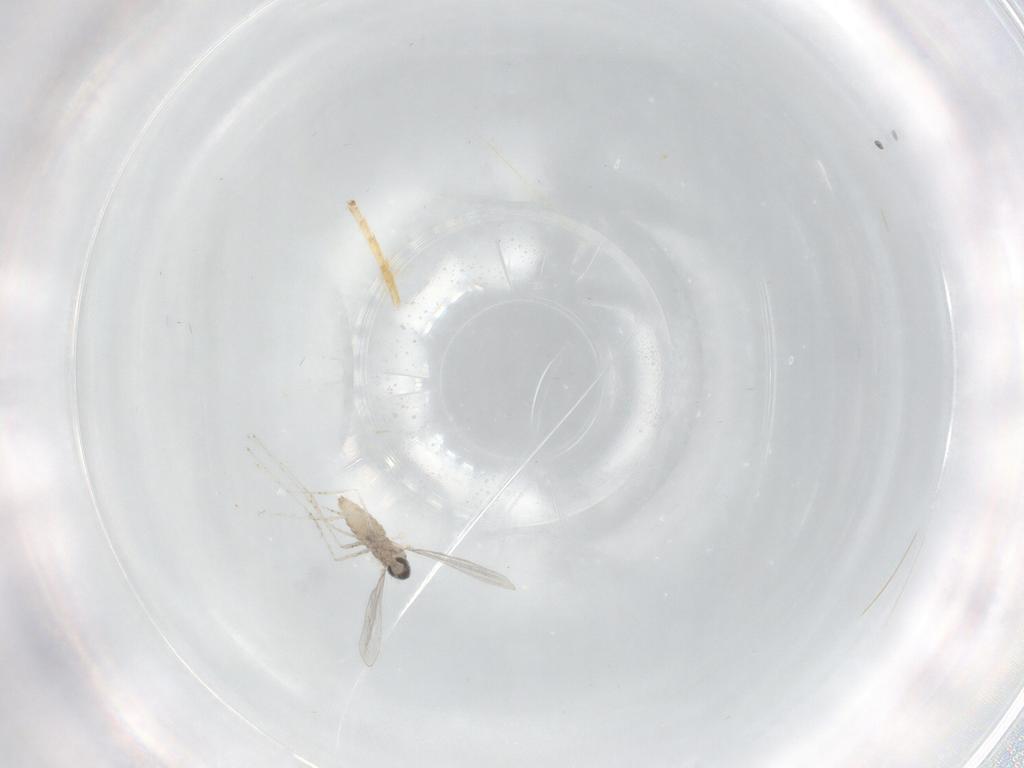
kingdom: Animalia
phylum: Arthropoda
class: Insecta
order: Diptera
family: Cecidomyiidae
